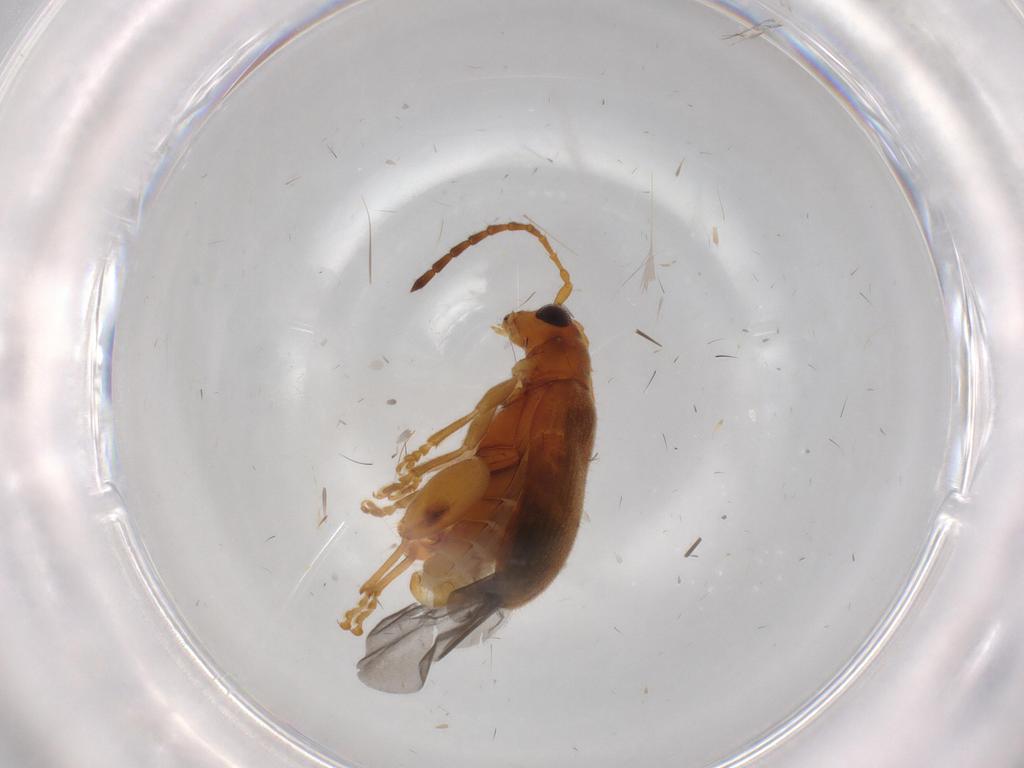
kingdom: Animalia
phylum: Arthropoda
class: Insecta
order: Coleoptera
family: Chrysomelidae
